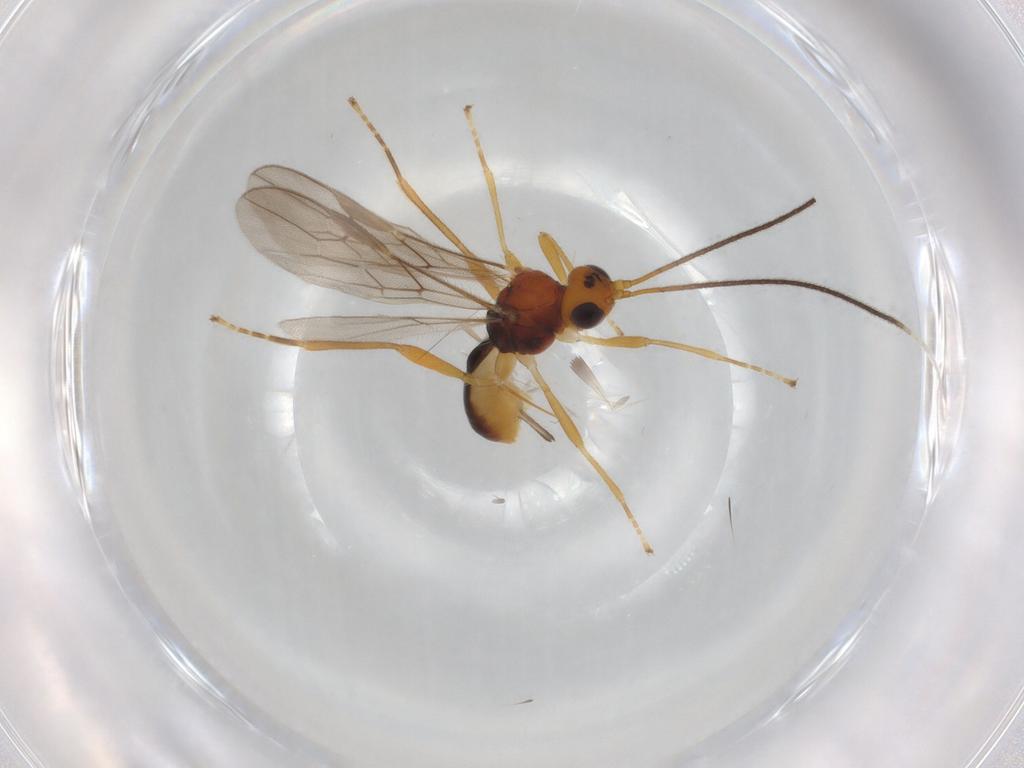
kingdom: Animalia
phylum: Arthropoda
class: Insecta
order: Hymenoptera
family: Braconidae
